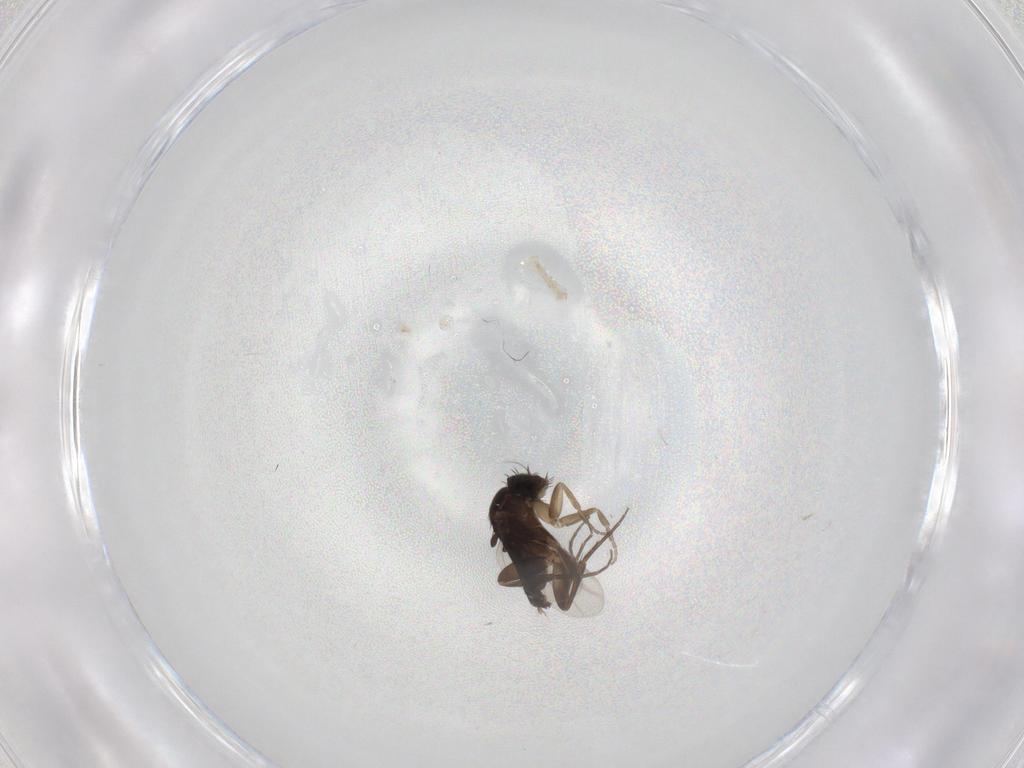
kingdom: Animalia
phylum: Arthropoda
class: Insecta
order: Diptera
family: Phoridae
